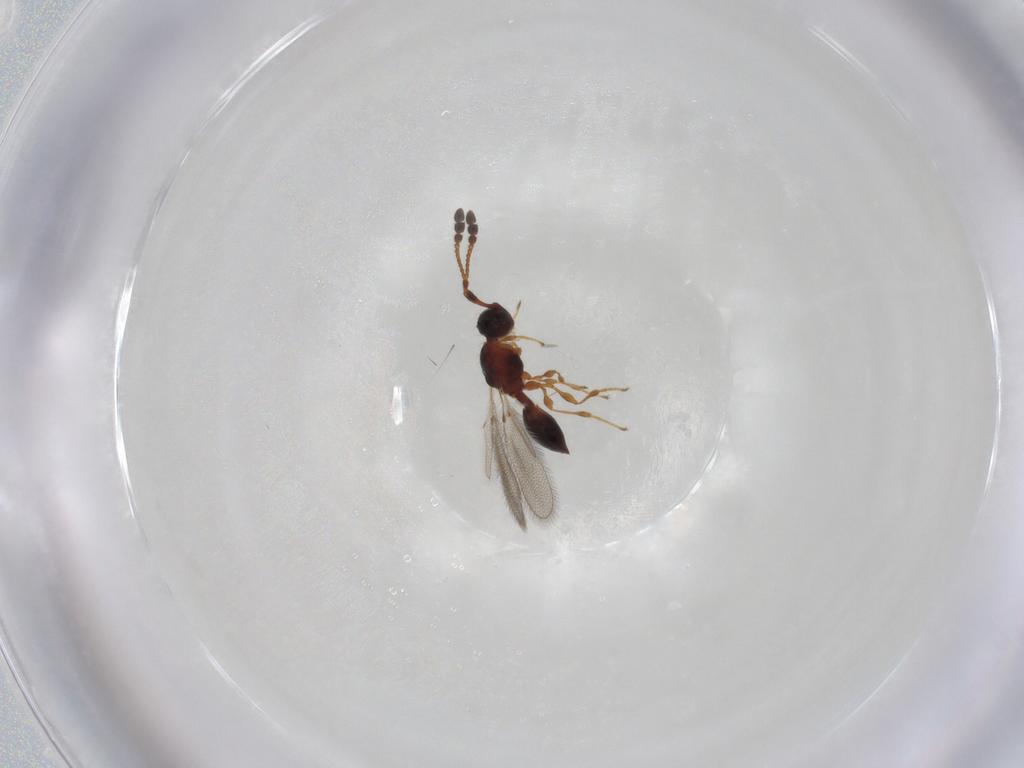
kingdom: Animalia
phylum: Arthropoda
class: Insecta
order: Hymenoptera
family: Diapriidae
